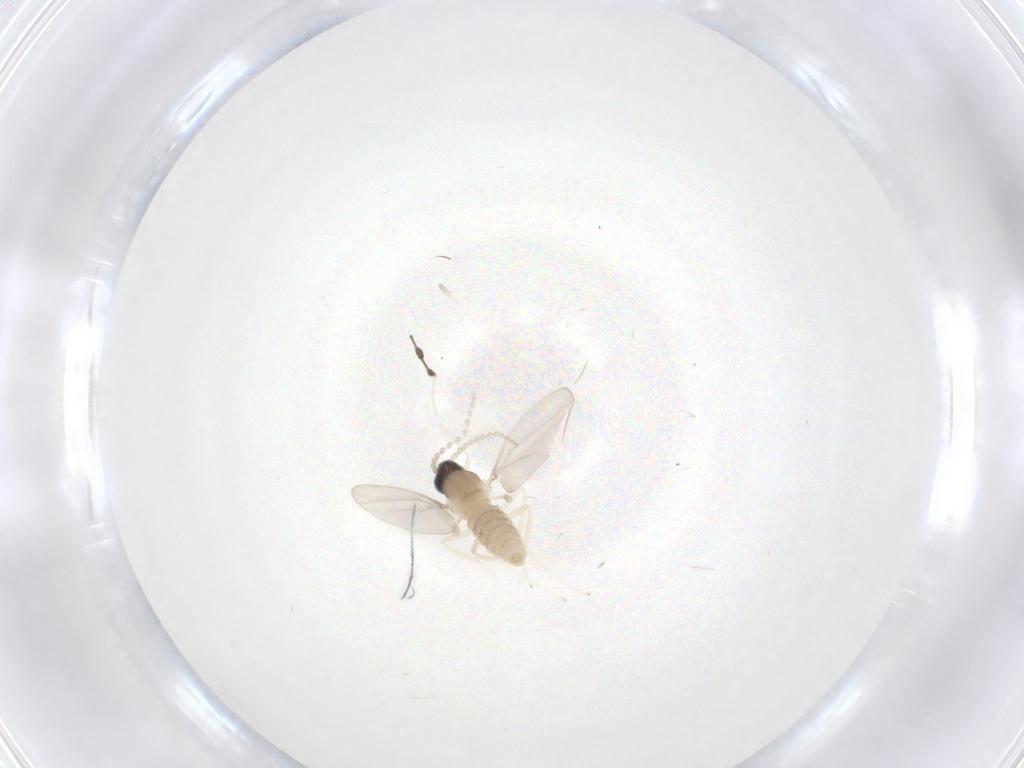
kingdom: Animalia
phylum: Arthropoda
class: Insecta
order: Diptera
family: Cecidomyiidae
